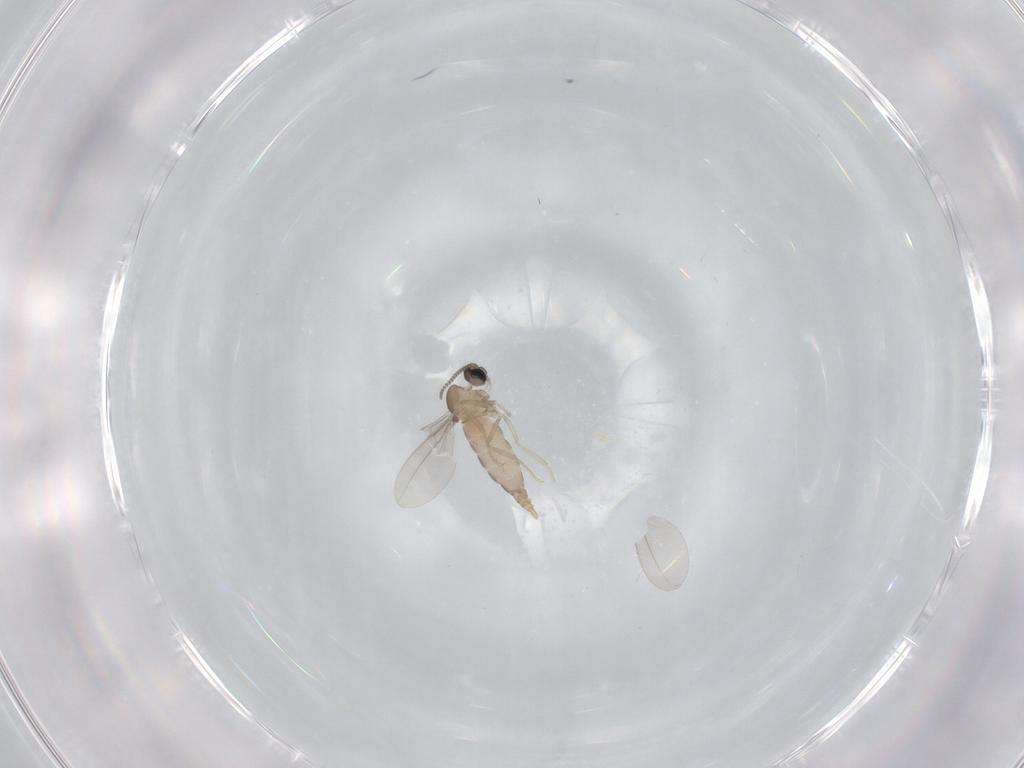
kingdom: Animalia
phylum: Arthropoda
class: Insecta
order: Diptera
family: Cecidomyiidae
